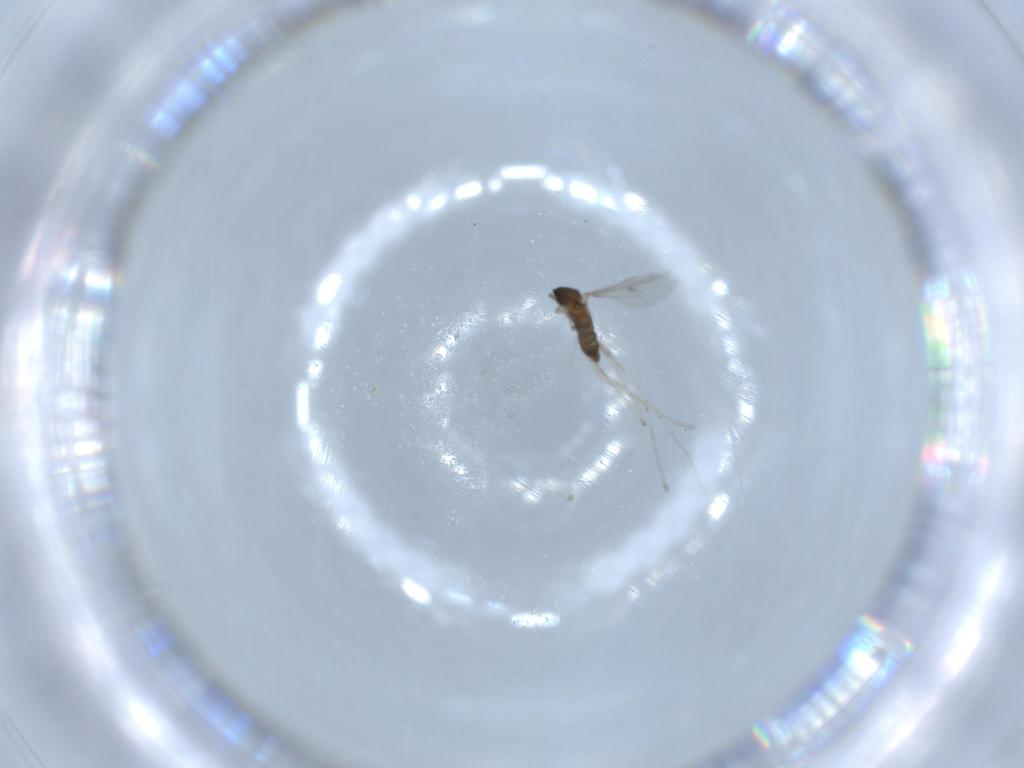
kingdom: Animalia
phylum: Arthropoda
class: Insecta
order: Diptera
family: Cecidomyiidae
